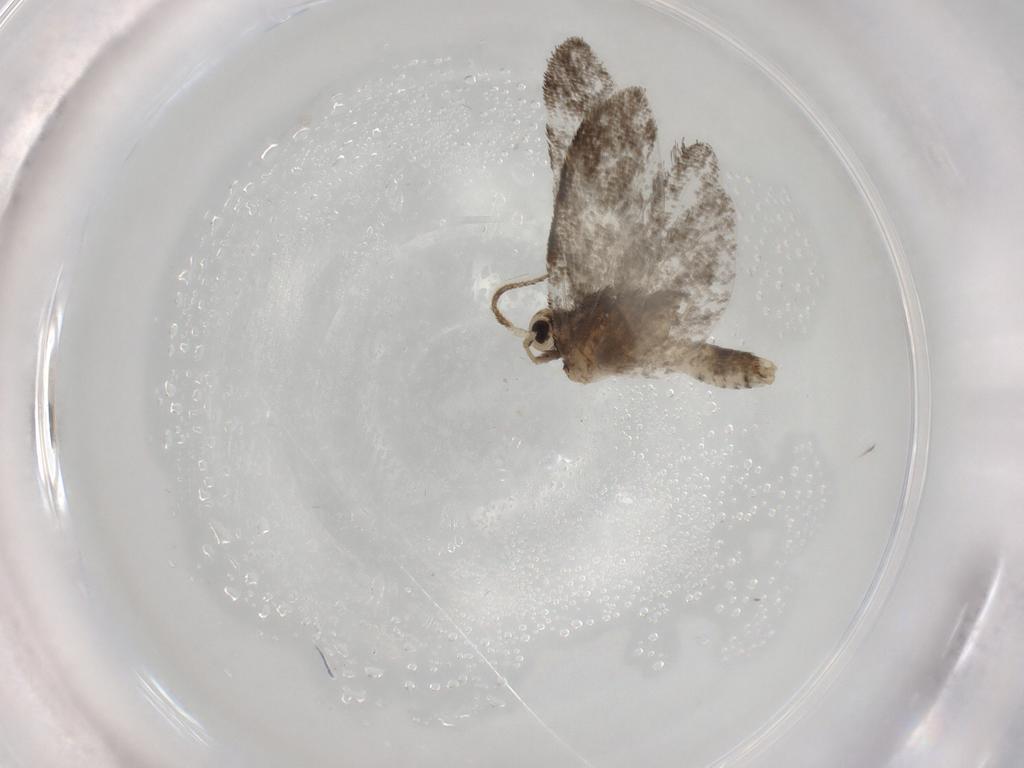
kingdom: Animalia
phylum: Arthropoda
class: Insecta
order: Lepidoptera
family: Psychidae
